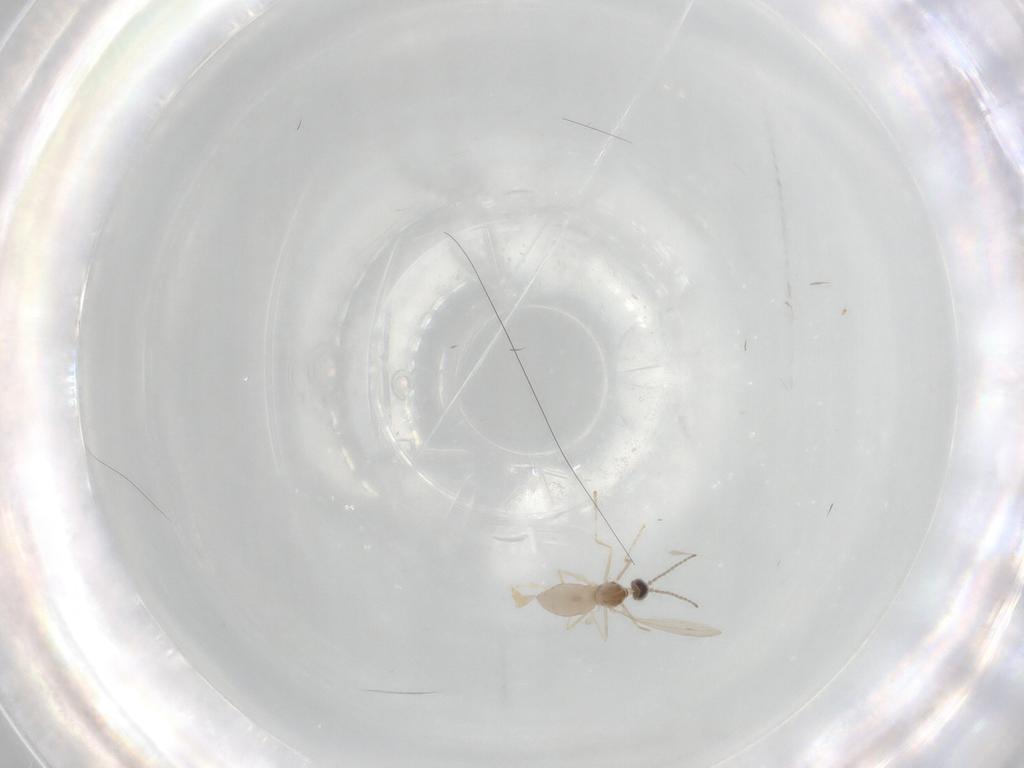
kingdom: Animalia
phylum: Arthropoda
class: Insecta
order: Diptera
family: Cecidomyiidae
